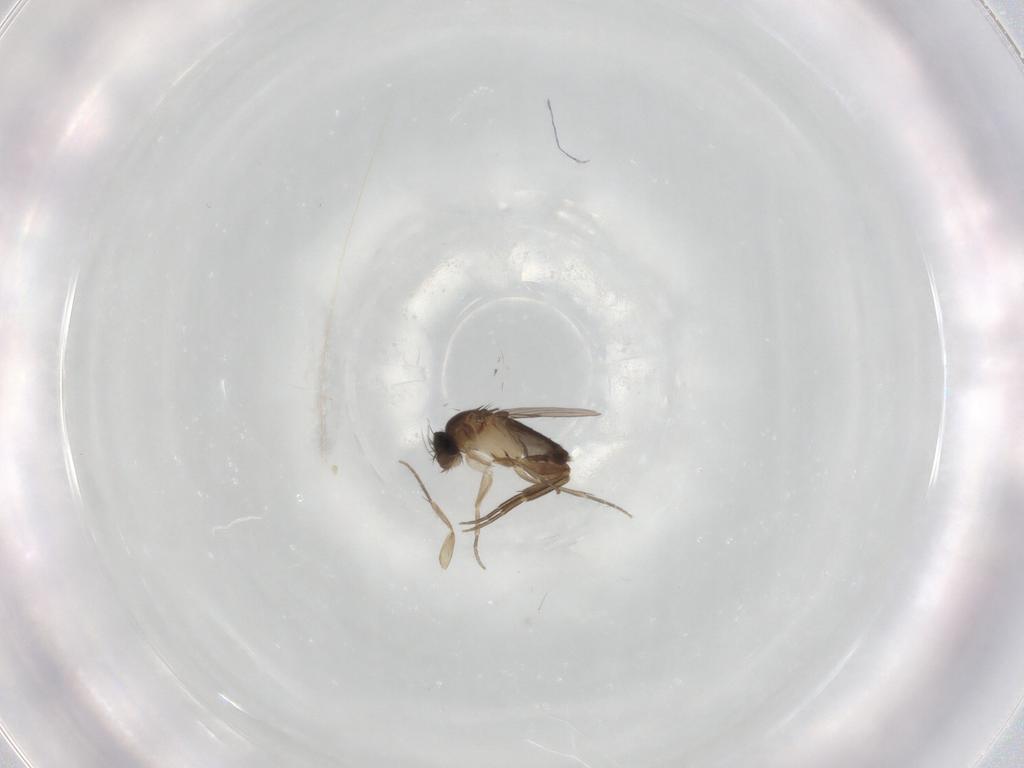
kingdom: Animalia
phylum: Arthropoda
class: Insecta
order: Diptera
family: Phoridae
